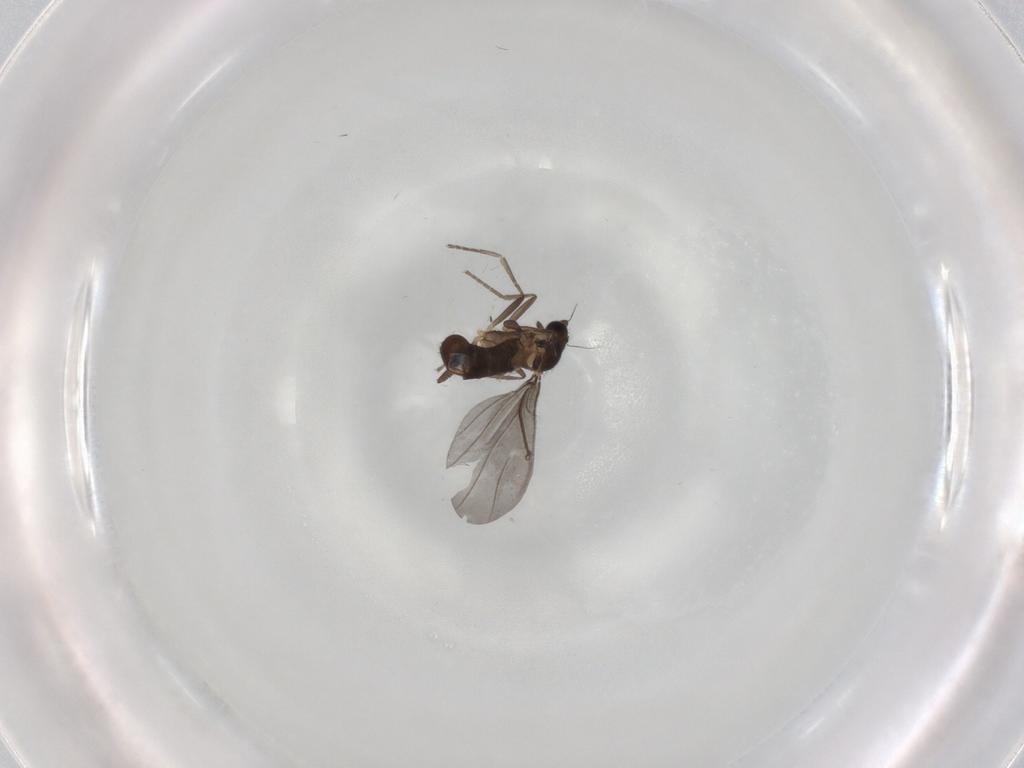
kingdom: Animalia
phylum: Arthropoda
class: Insecta
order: Diptera
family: Phoridae
